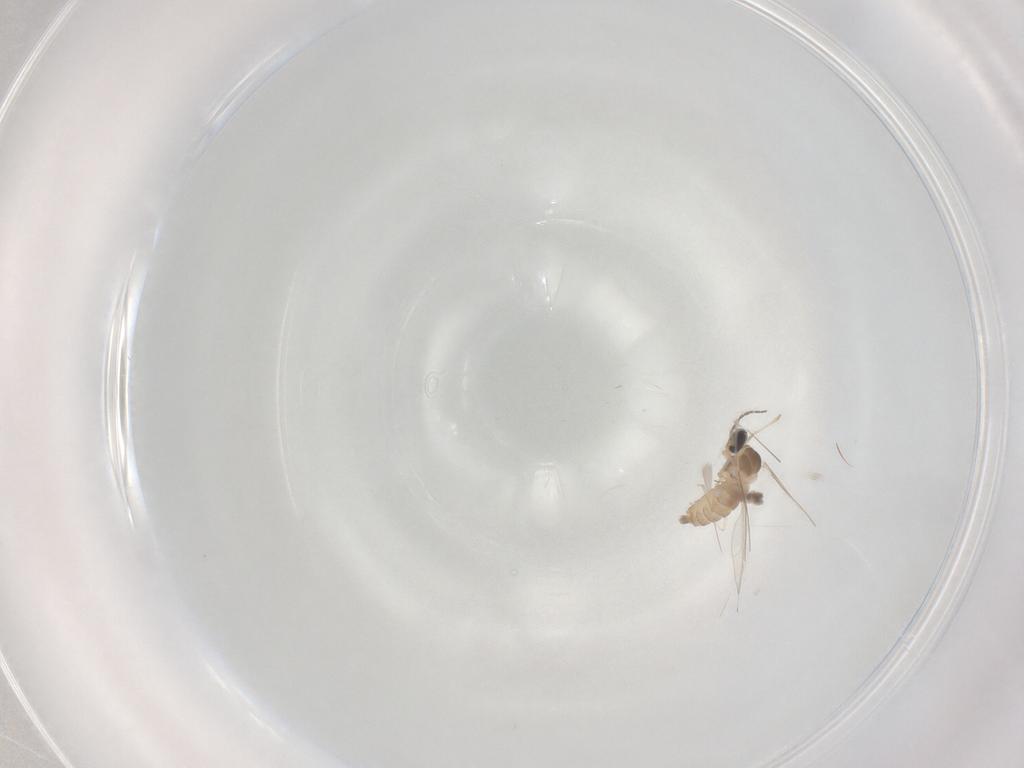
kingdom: Animalia
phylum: Arthropoda
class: Insecta
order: Diptera
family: Cecidomyiidae
